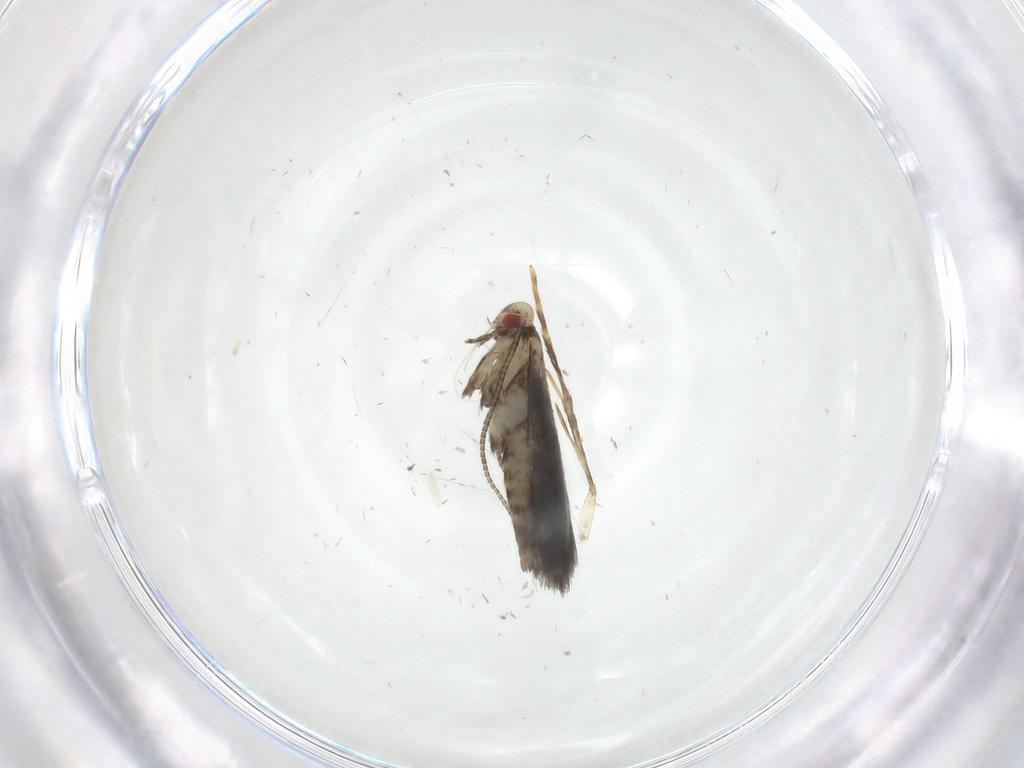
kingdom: Animalia
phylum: Arthropoda
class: Insecta
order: Lepidoptera
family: Gracillariidae
